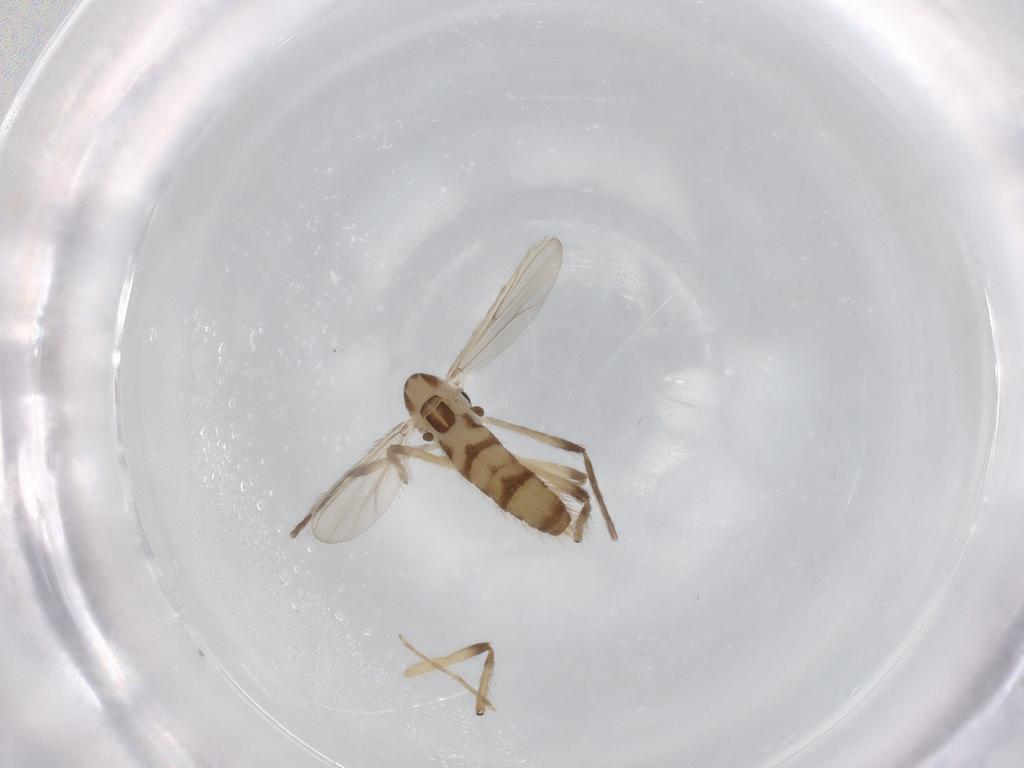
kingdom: Animalia
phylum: Arthropoda
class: Insecta
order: Diptera
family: Chironomidae
